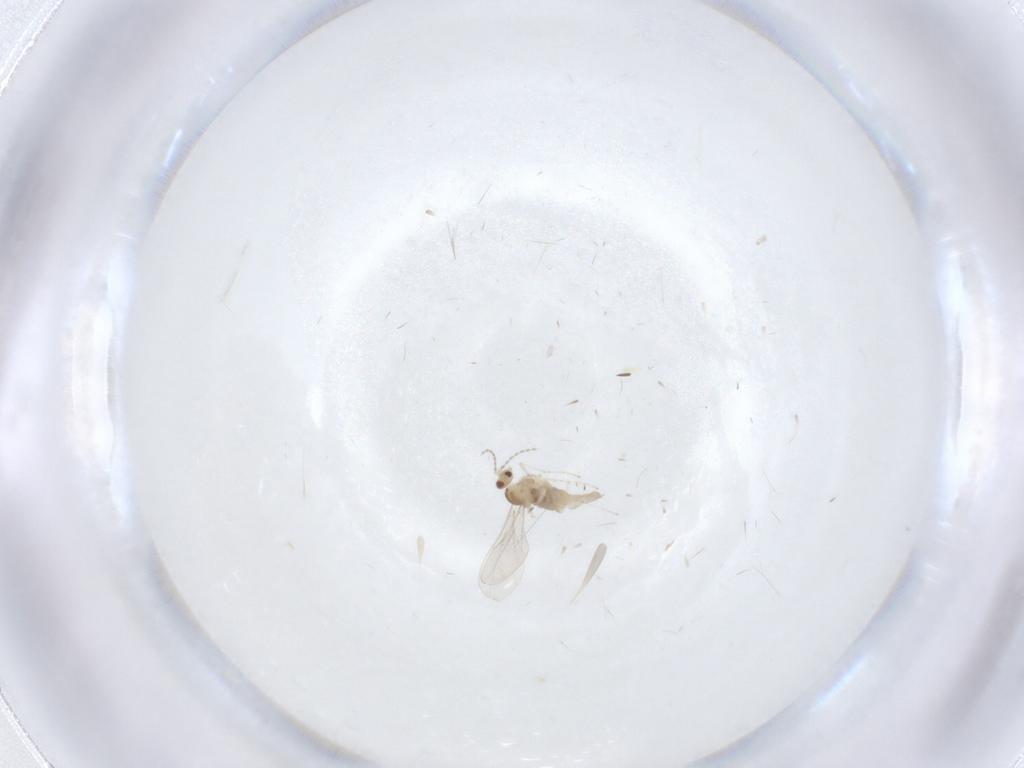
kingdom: Animalia
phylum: Arthropoda
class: Insecta
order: Diptera
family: Cecidomyiidae
